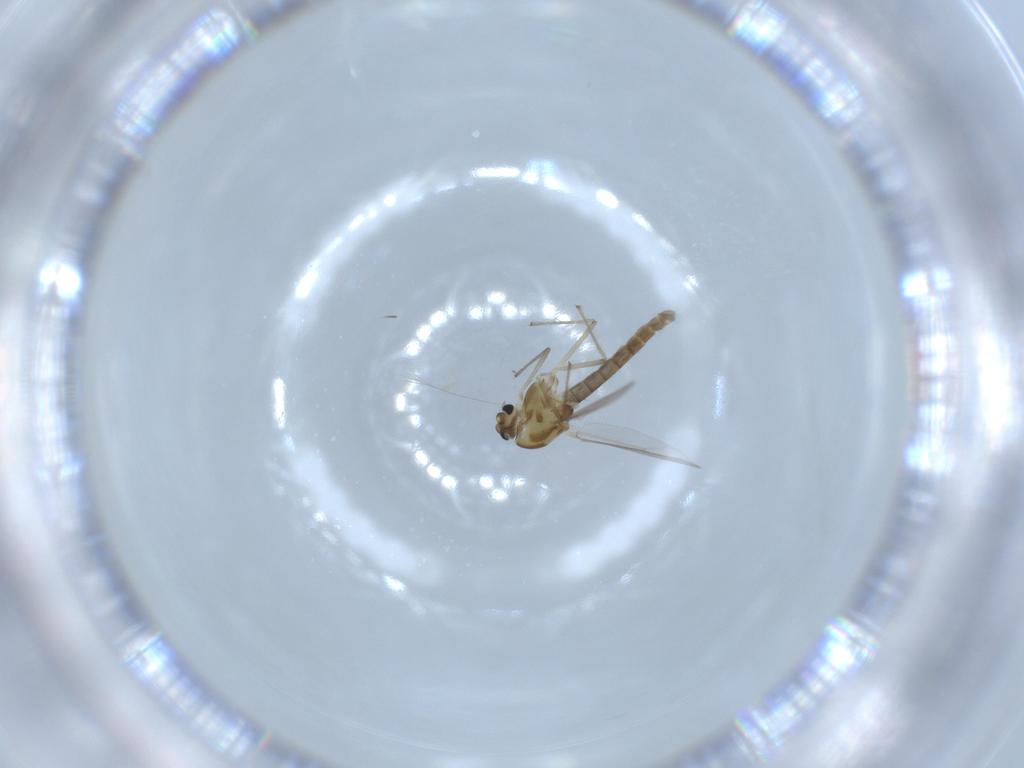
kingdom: Animalia
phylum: Arthropoda
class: Insecta
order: Diptera
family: Chironomidae
